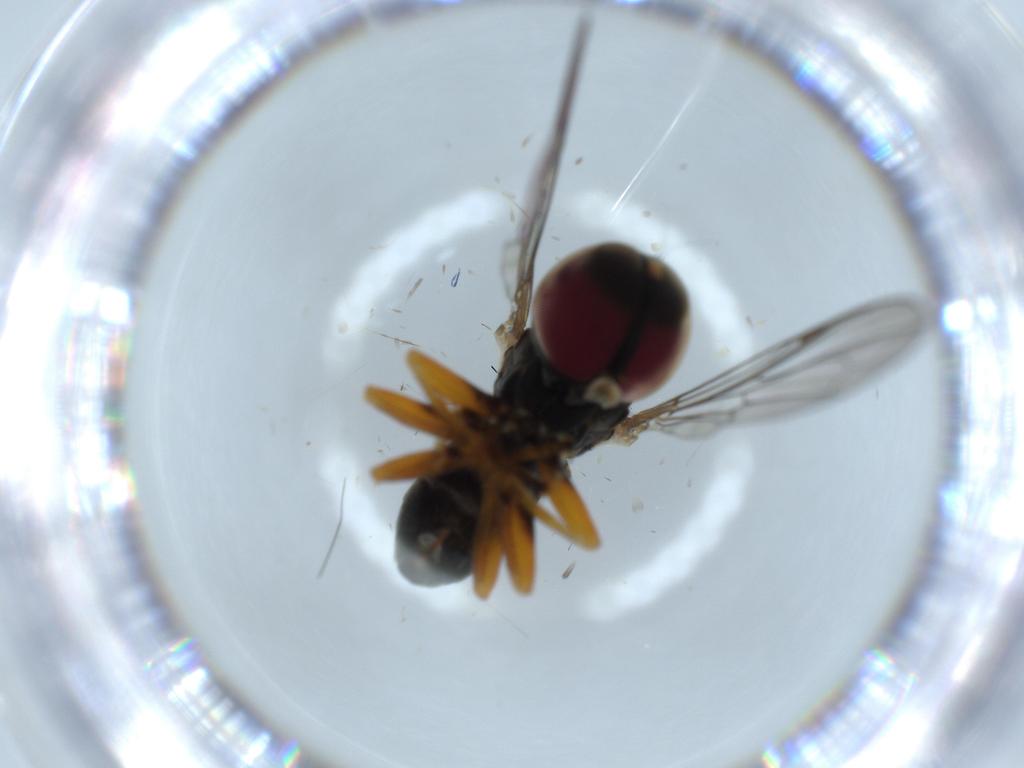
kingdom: Animalia
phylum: Arthropoda
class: Insecta
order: Diptera
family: Pipunculidae
